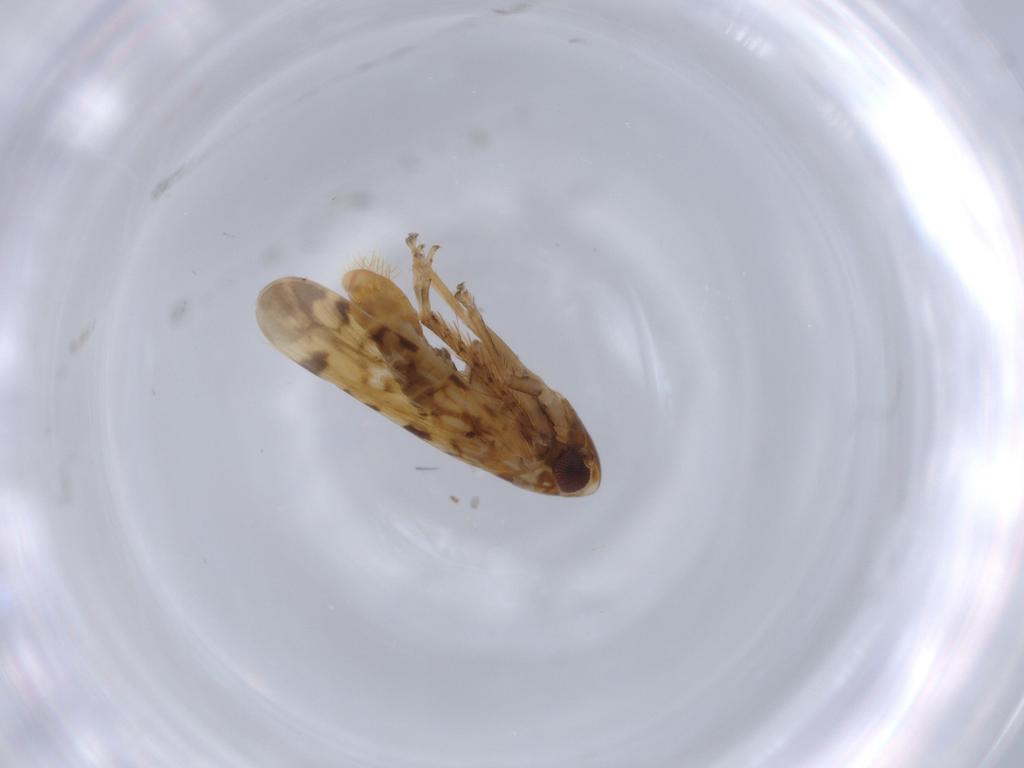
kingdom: Animalia
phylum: Arthropoda
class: Insecta
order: Hemiptera
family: Cicadellidae
